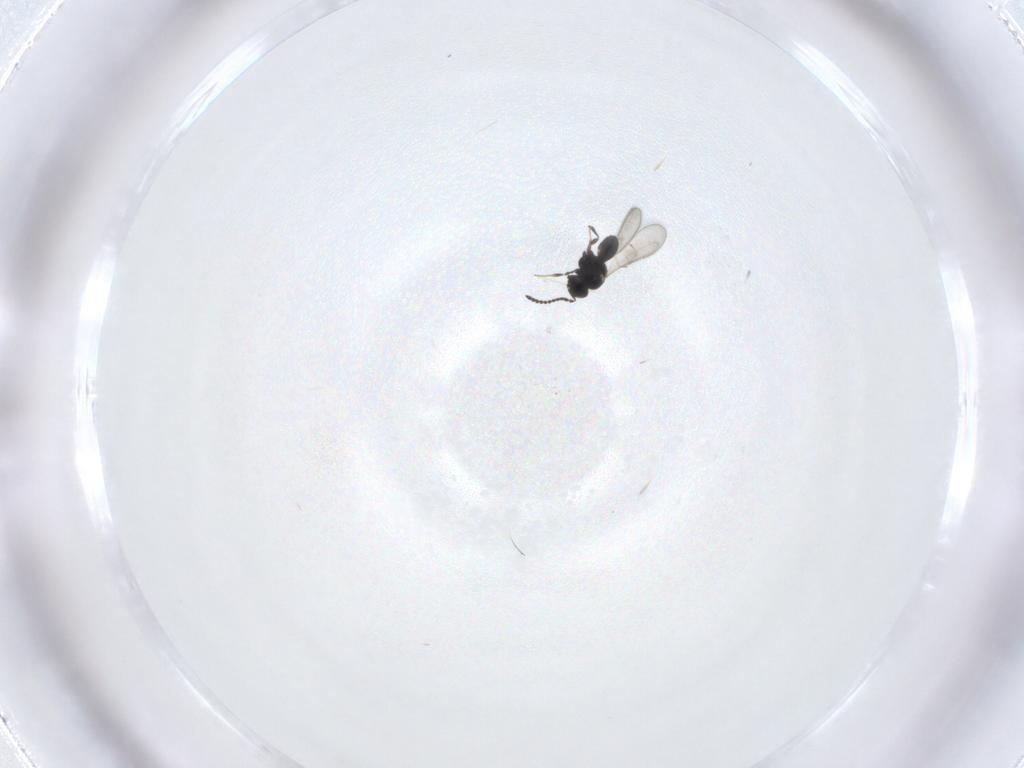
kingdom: Animalia
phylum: Arthropoda
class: Insecta
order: Hymenoptera
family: Scelionidae
